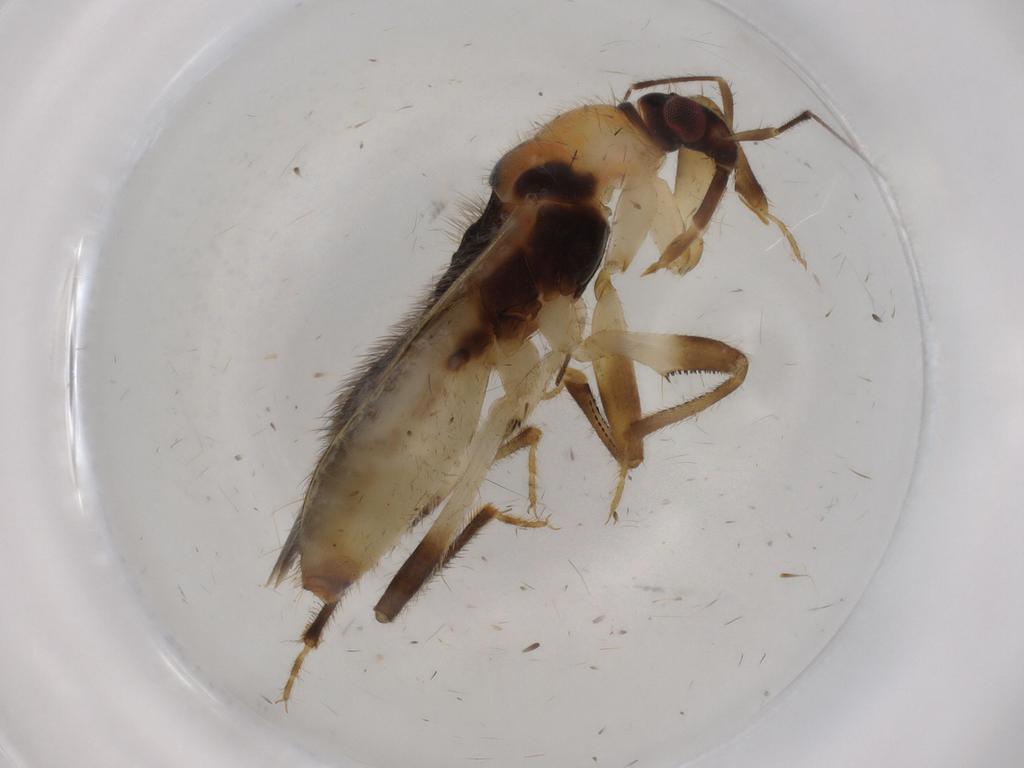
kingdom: Animalia
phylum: Arthropoda
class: Insecta
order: Hemiptera
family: Nabidae
